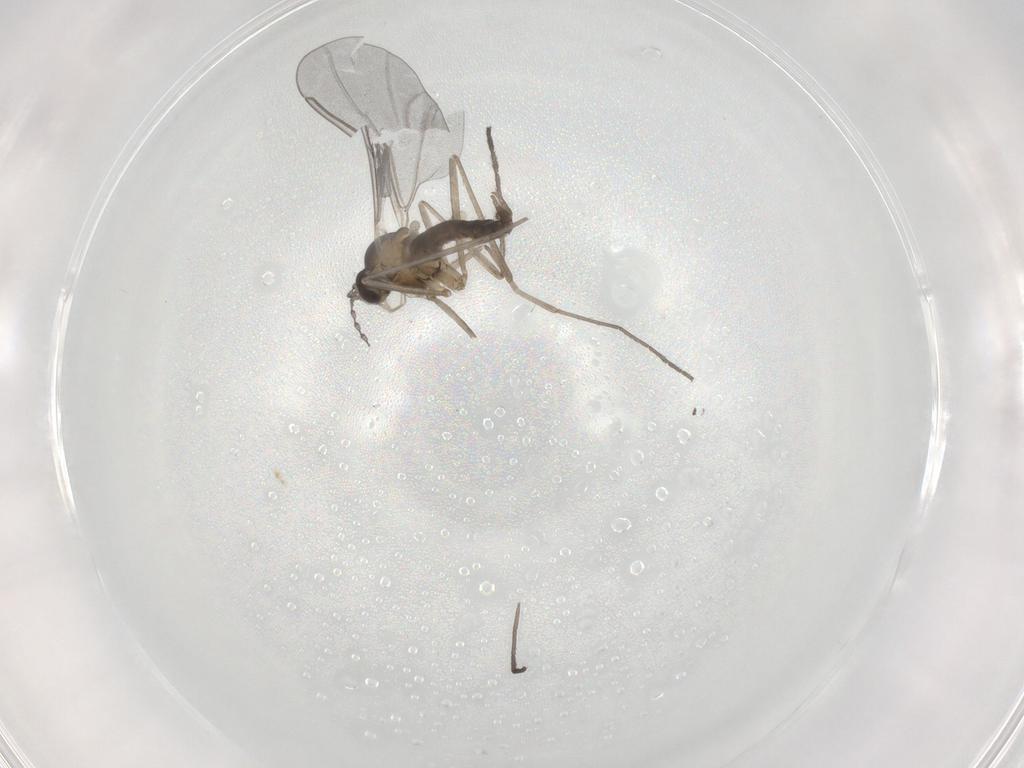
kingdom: Animalia
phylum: Arthropoda
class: Insecta
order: Diptera
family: Cecidomyiidae
